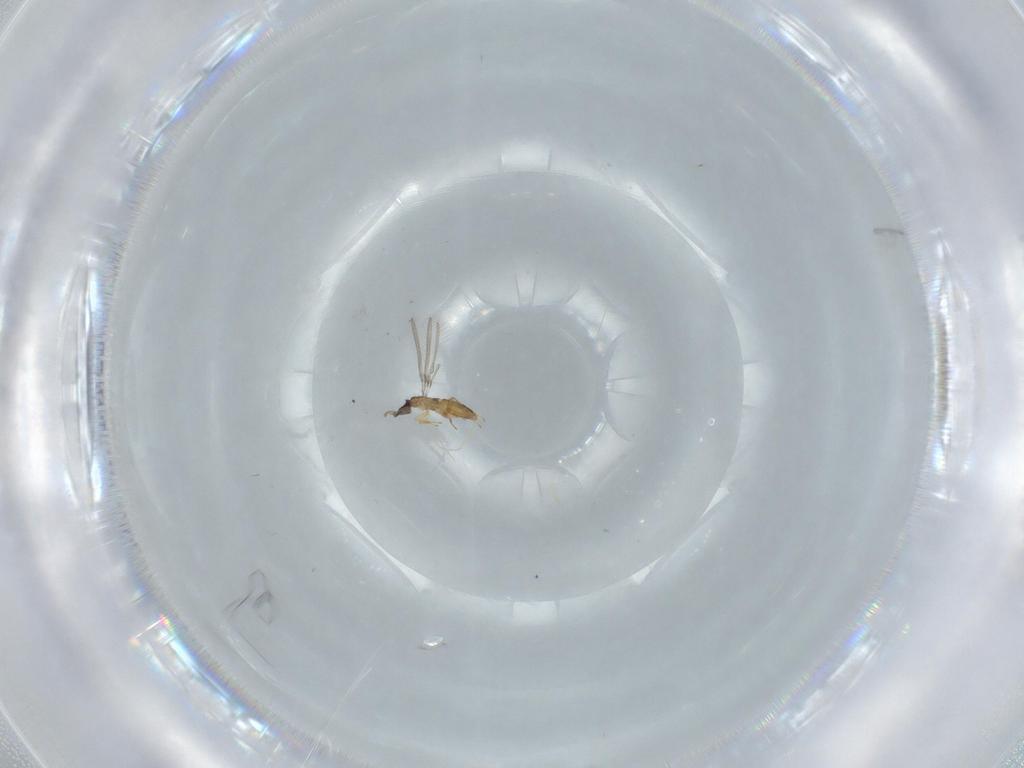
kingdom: Animalia
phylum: Arthropoda
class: Insecta
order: Hymenoptera
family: Mymaridae
